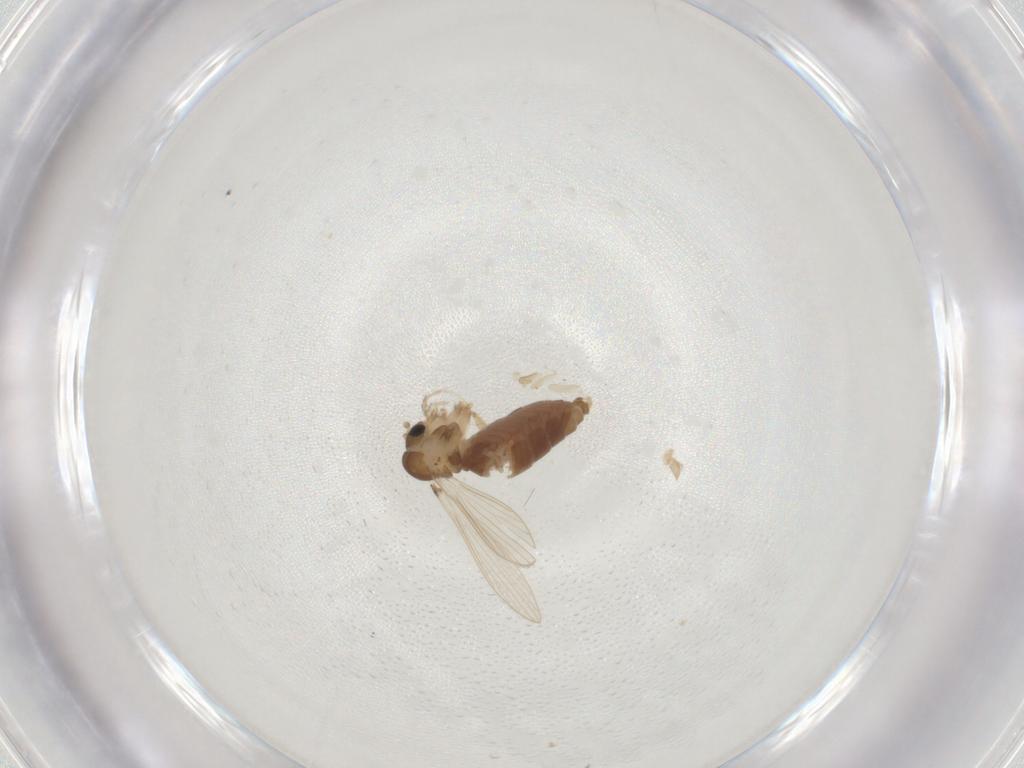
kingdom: Animalia
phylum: Arthropoda
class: Insecta
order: Diptera
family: Psychodidae
